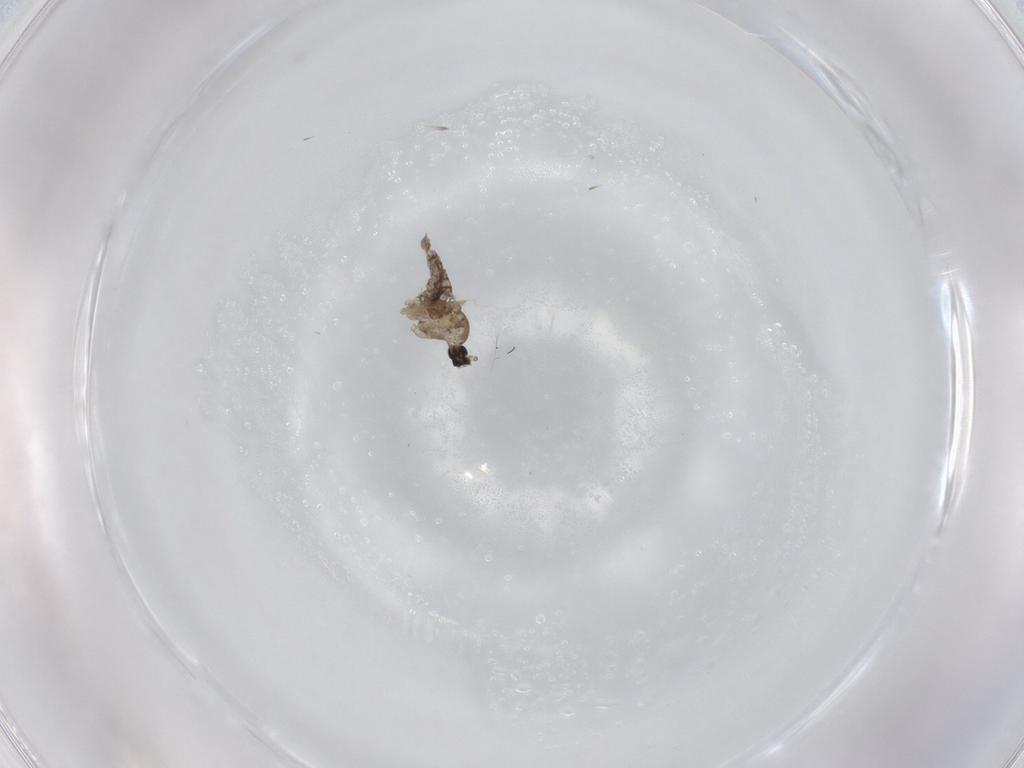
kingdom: Animalia
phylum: Arthropoda
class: Insecta
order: Diptera
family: Cecidomyiidae
